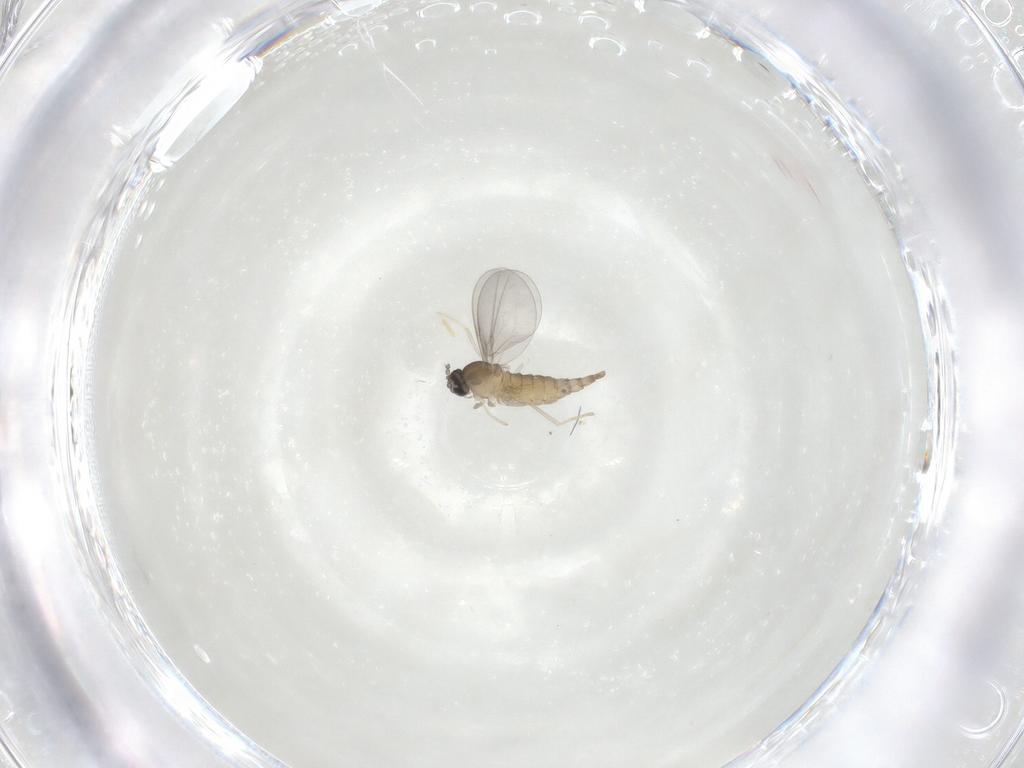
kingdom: Animalia
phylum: Arthropoda
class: Insecta
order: Diptera
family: Cecidomyiidae
